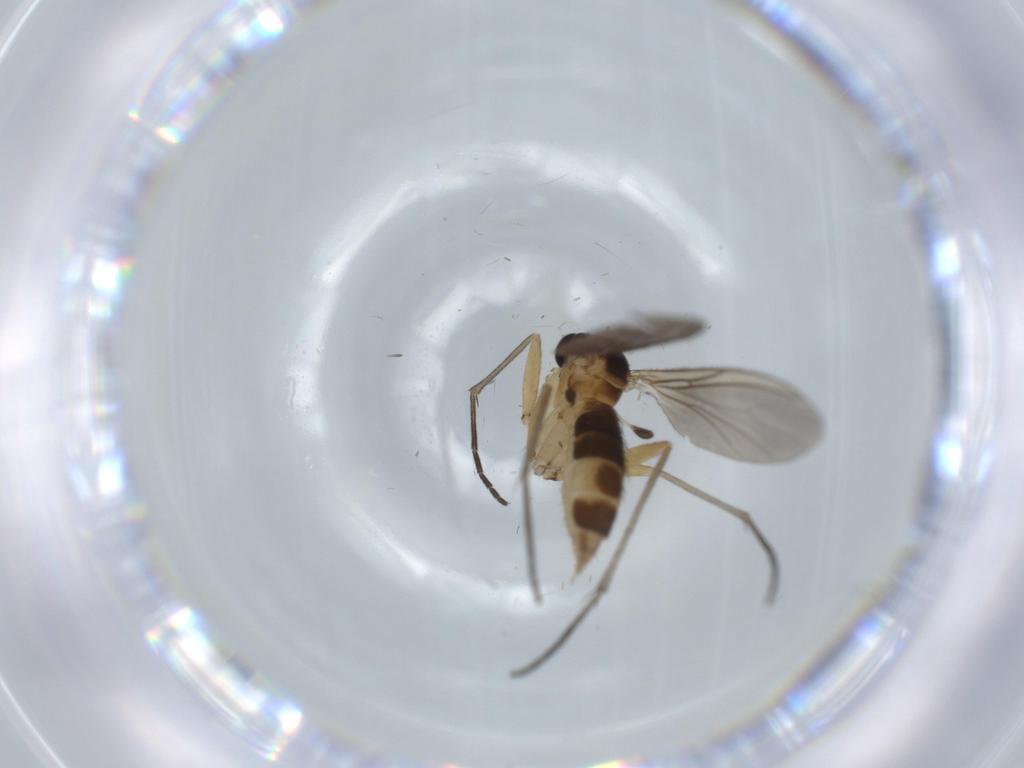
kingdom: Animalia
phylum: Arthropoda
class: Insecta
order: Diptera
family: Sciaridae
